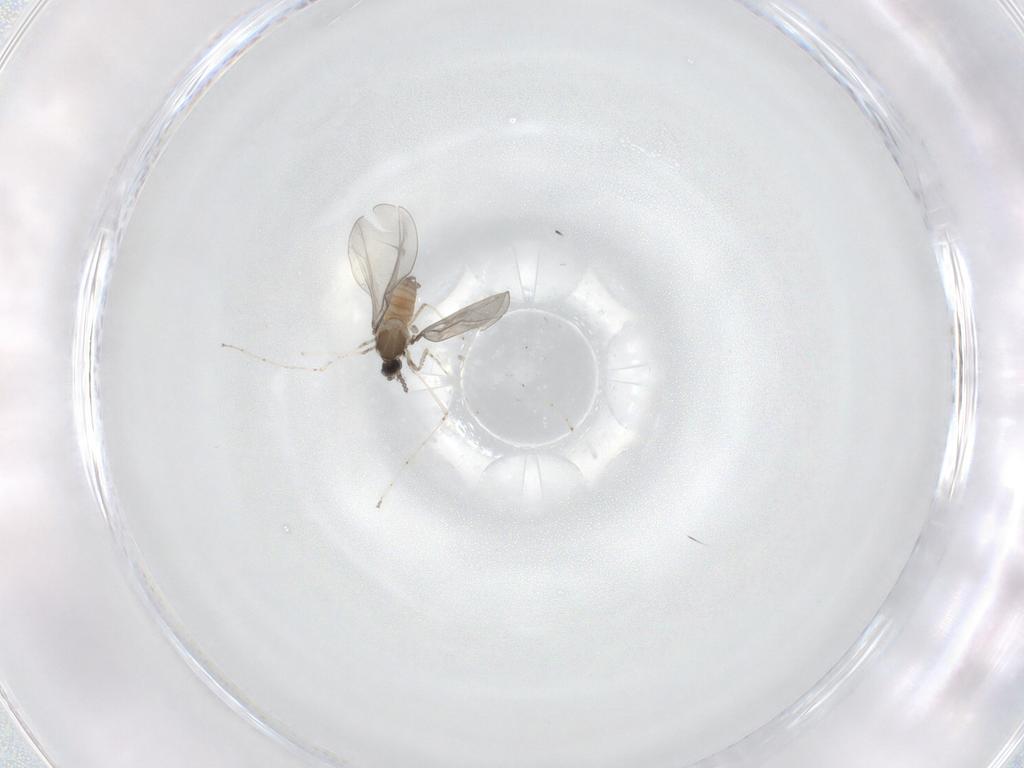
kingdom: Animalia
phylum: Arthropoda
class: Insecta
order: Diptera
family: Cecidomyiidae
